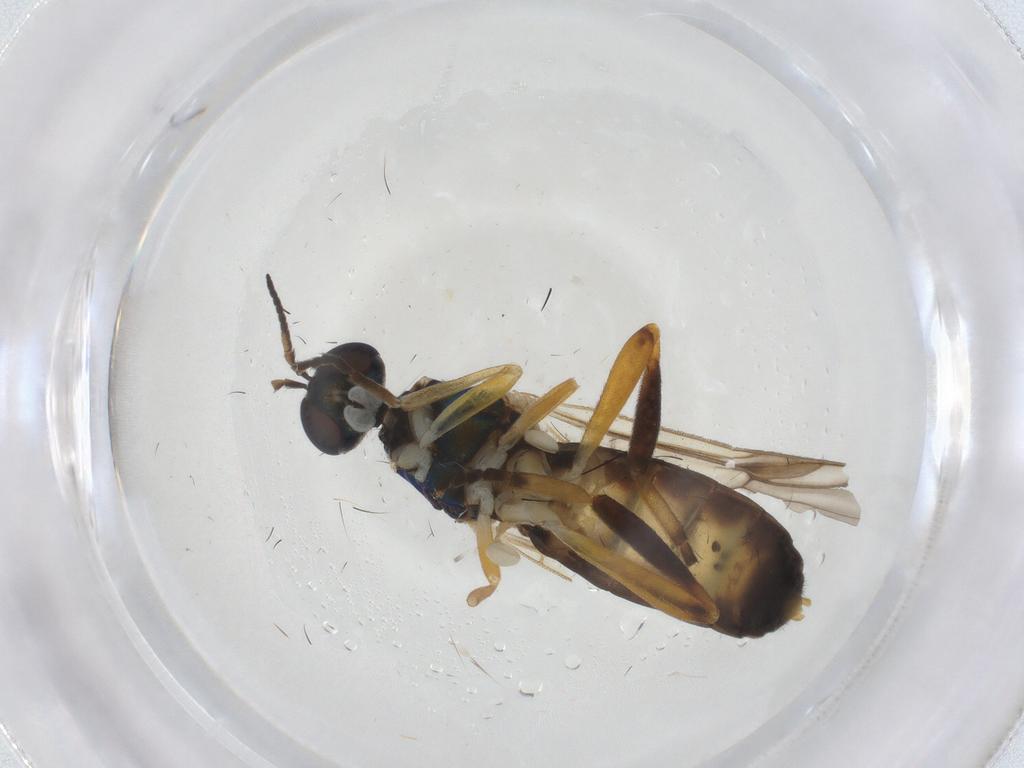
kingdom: Animalia
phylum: Arthropoda
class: Insecta
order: Diptera
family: Stratiomyidae
